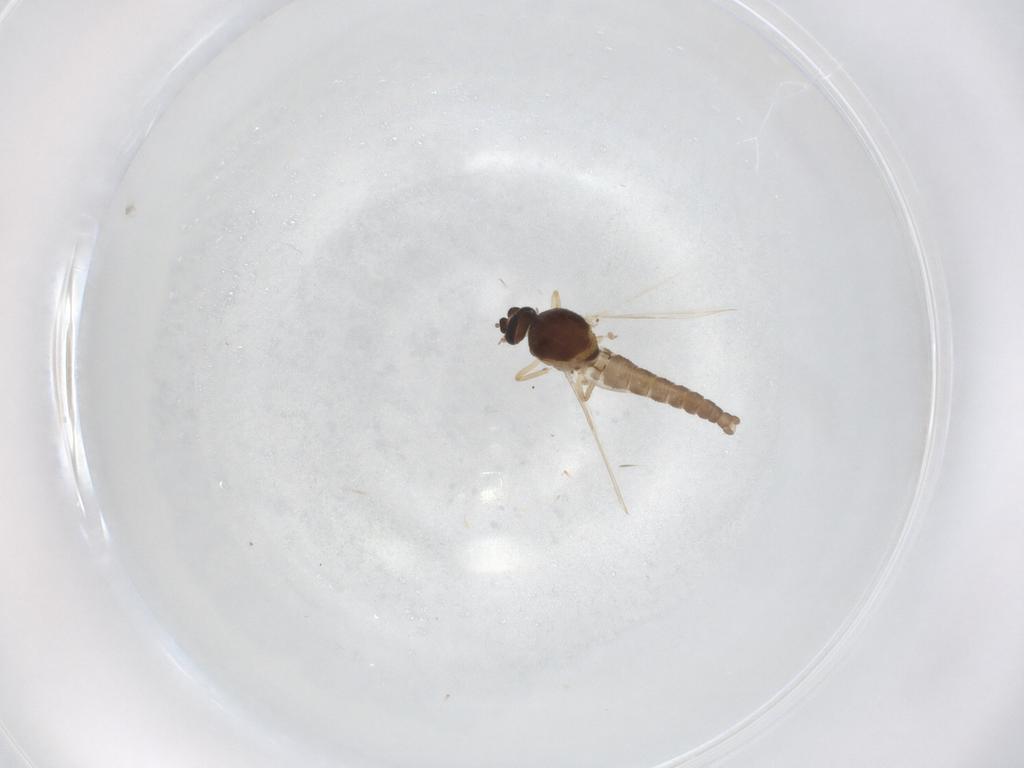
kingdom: Animalia
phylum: Arthropoda
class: Insecta
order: Diptera
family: Ceratopogonidae
